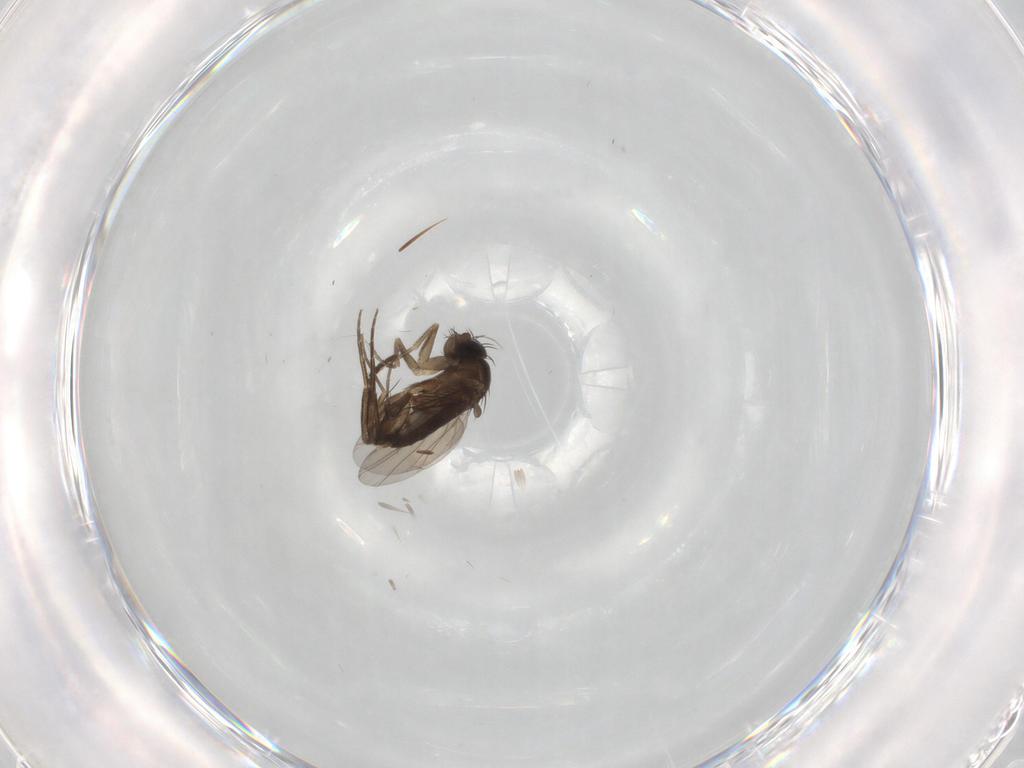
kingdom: Animalia
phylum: Arthropoda
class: Insecta
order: Diptera
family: Phoridae
